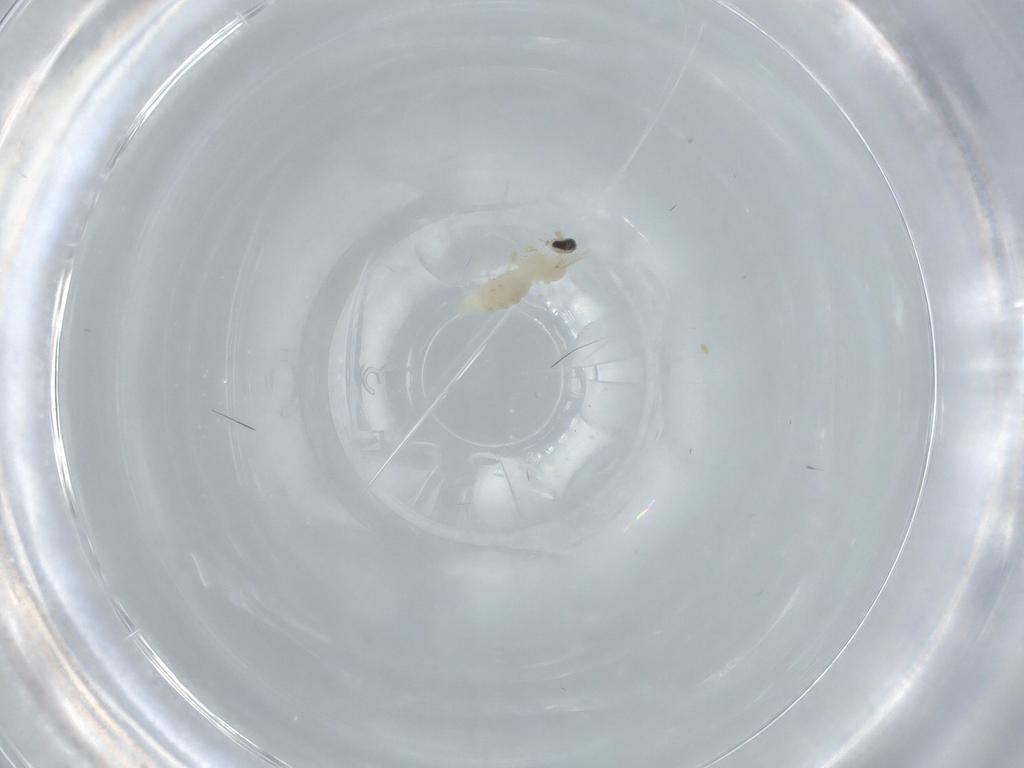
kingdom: Animalia
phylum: Arthropoda
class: Insecta
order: Diptera
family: Cecidomyiidae
